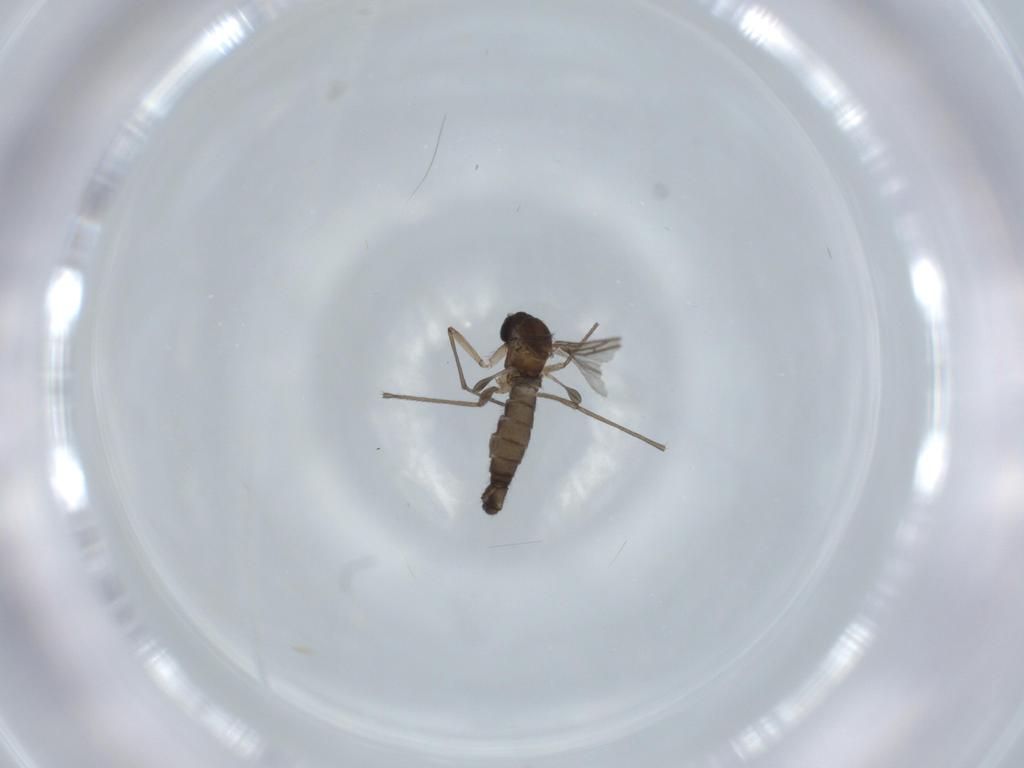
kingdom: Animalia
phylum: Arthropoda
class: Insecta
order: Diptera
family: Sciaridae
